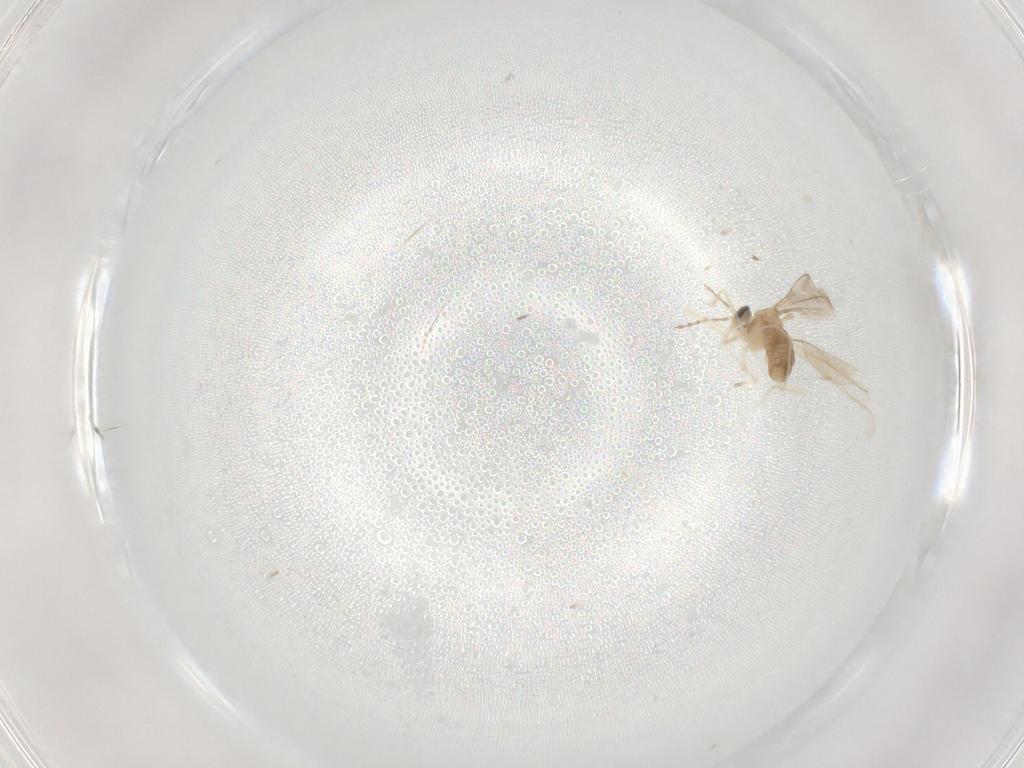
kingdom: Animalia
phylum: Arthropoda
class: Insecta
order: Diptera
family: Cecidomyiidae
